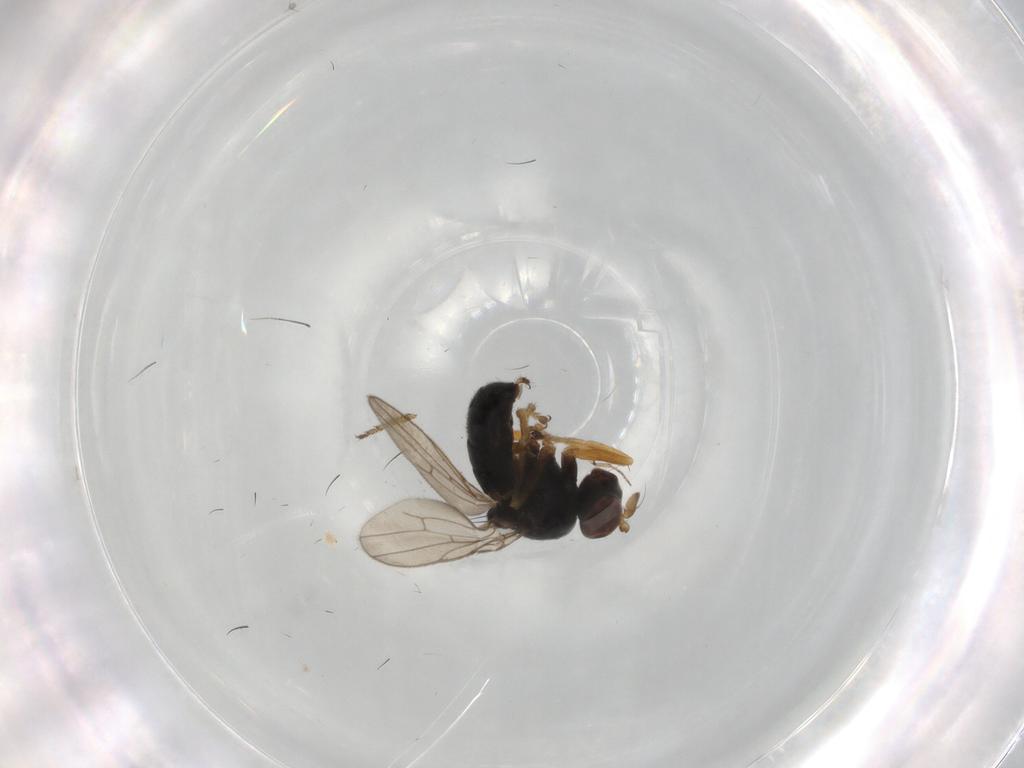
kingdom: Animalia
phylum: Arthropoda
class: Insecta
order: Diptera
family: Ephydridae
